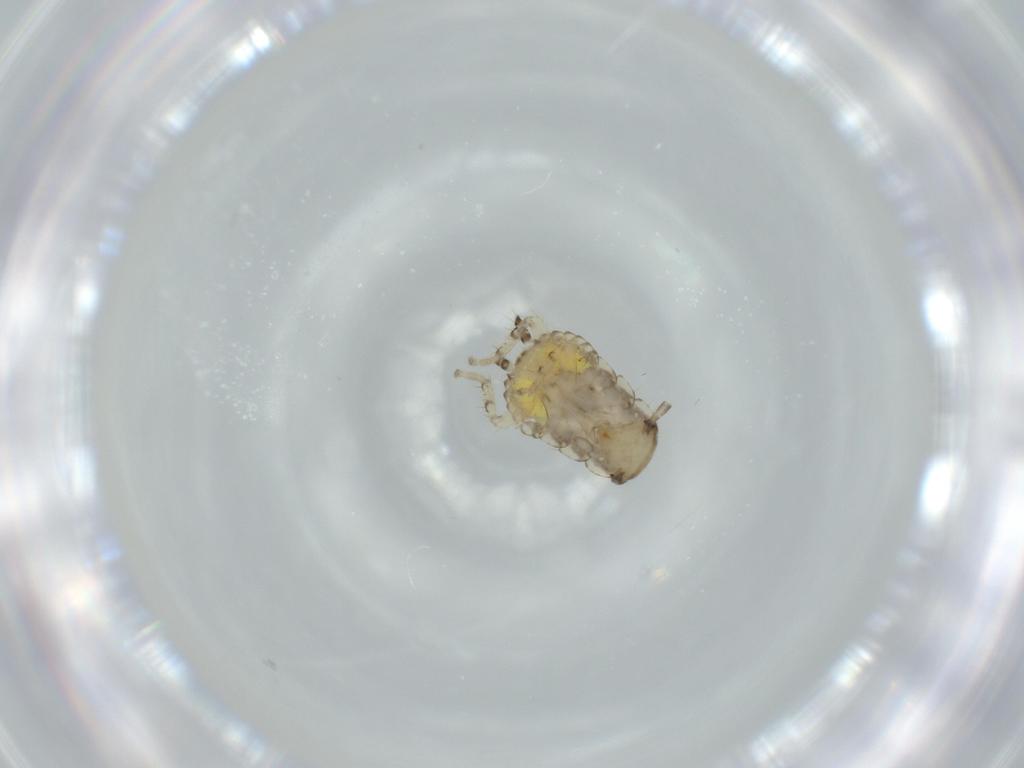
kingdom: Animalia
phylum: Arthropoda
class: Insecta
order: Blattodea
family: Ectobiidae
